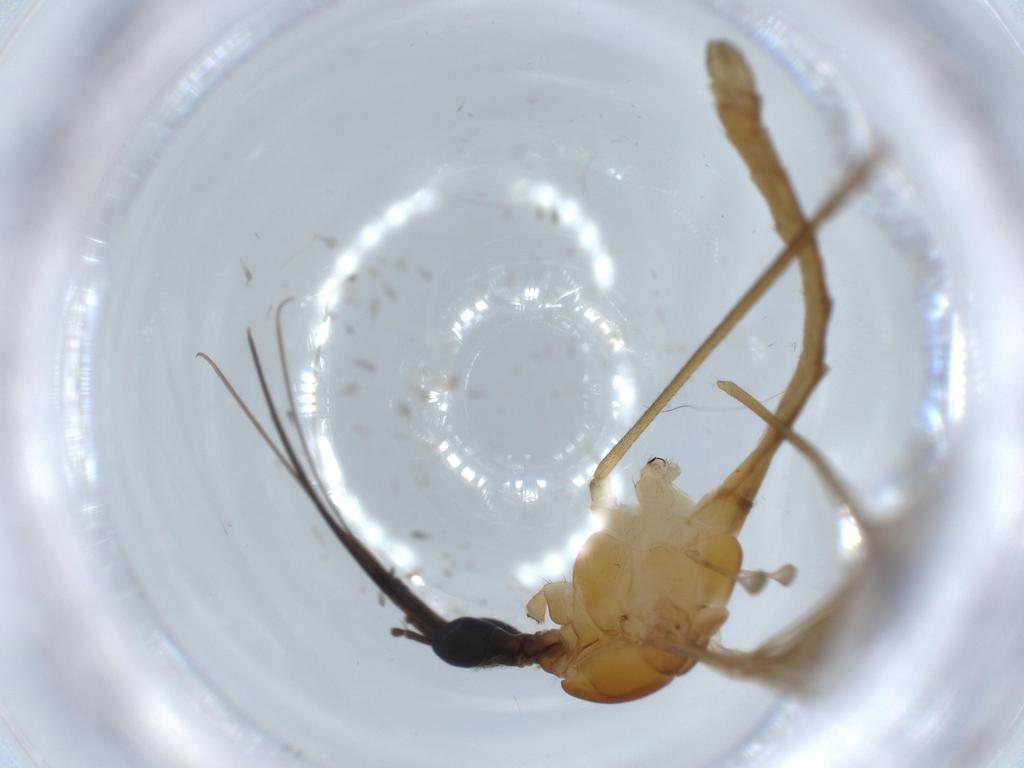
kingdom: Animalia
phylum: Arthropoda
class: Insecta
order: Diptera
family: Limoniidae
